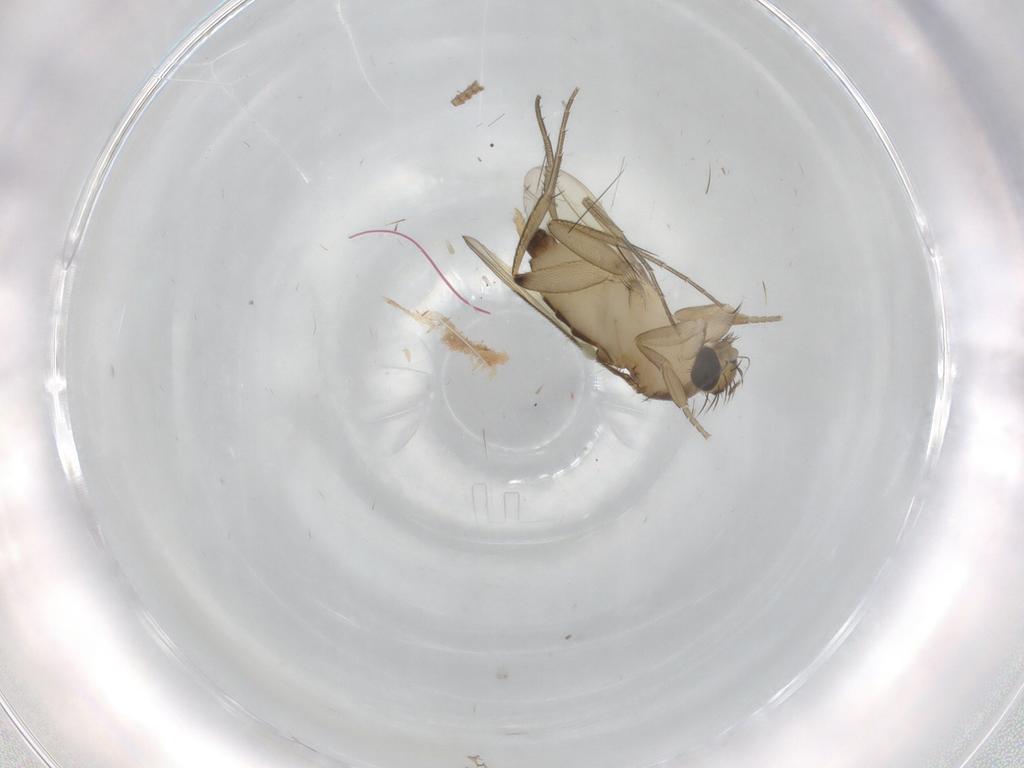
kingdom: Animalia
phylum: Arthropoda
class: Insecta
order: Diptera
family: Phoridae
